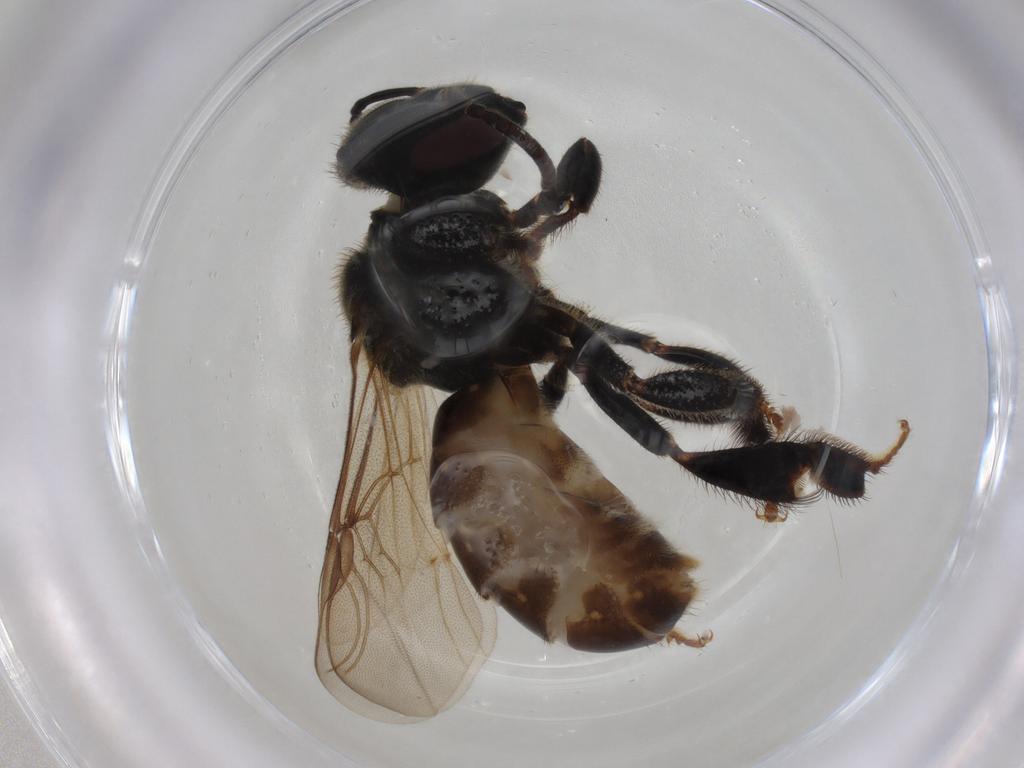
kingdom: Animalia
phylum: Arthropoda
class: Insecta
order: Hymenoptera
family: Apidae
